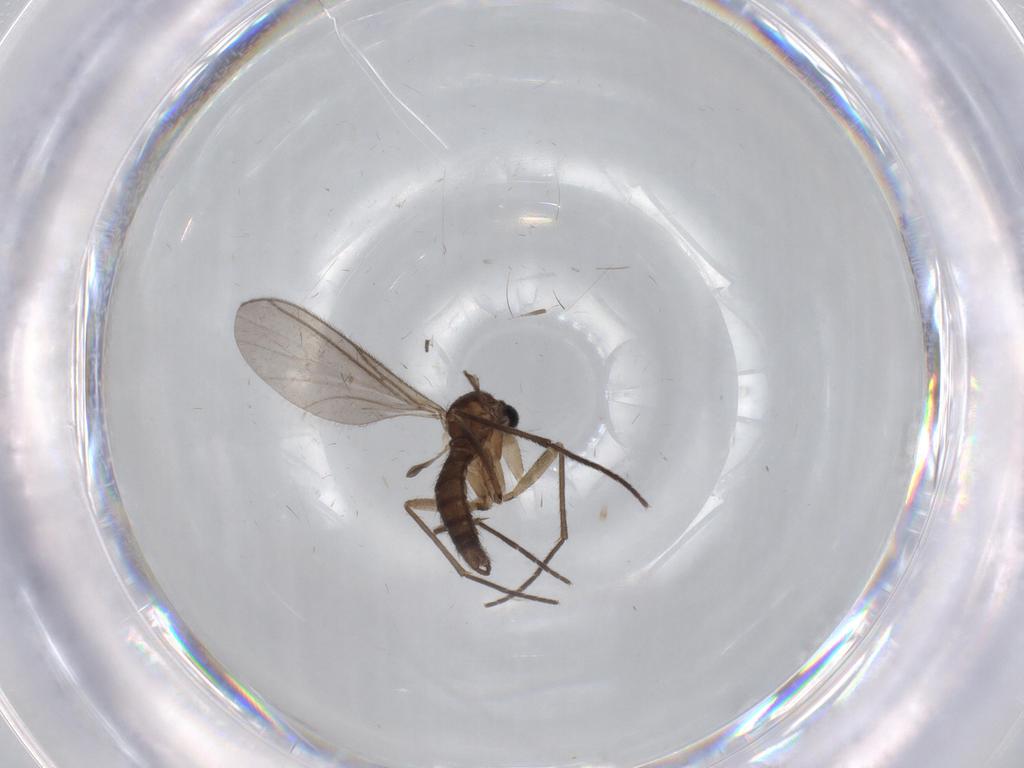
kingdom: Animalia
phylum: Arthropoda
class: Insecta
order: Diptera
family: Sciaridae
